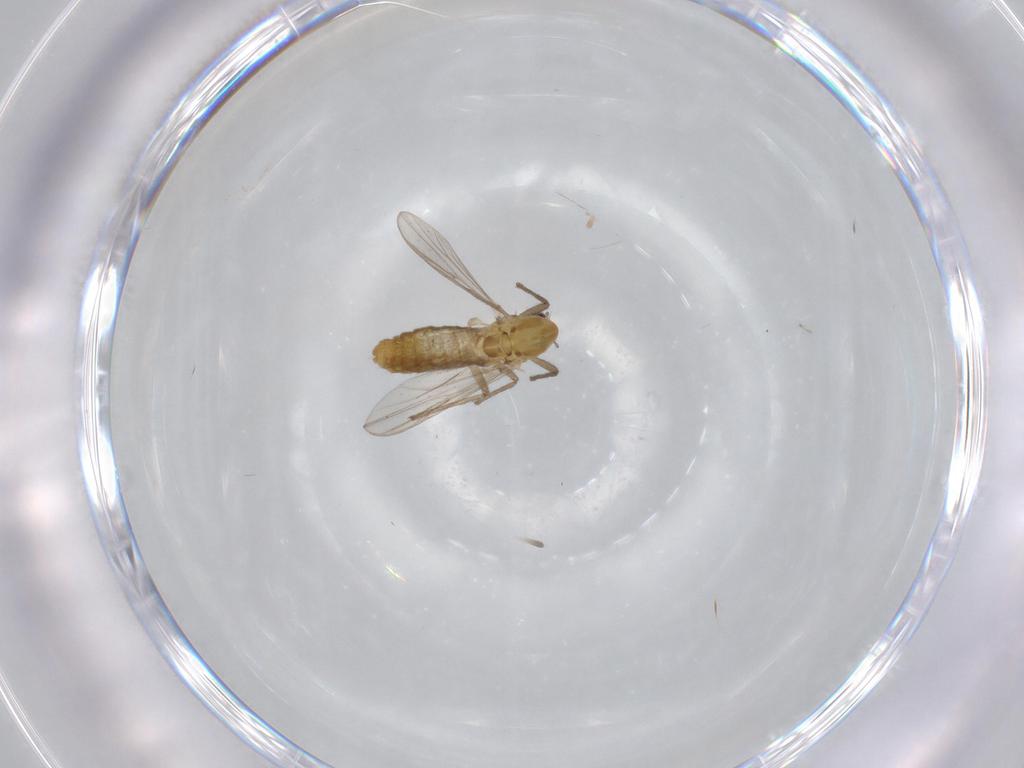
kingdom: Animalia
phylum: Arthropoda
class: Insecta
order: Diptera
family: Chironomidae
